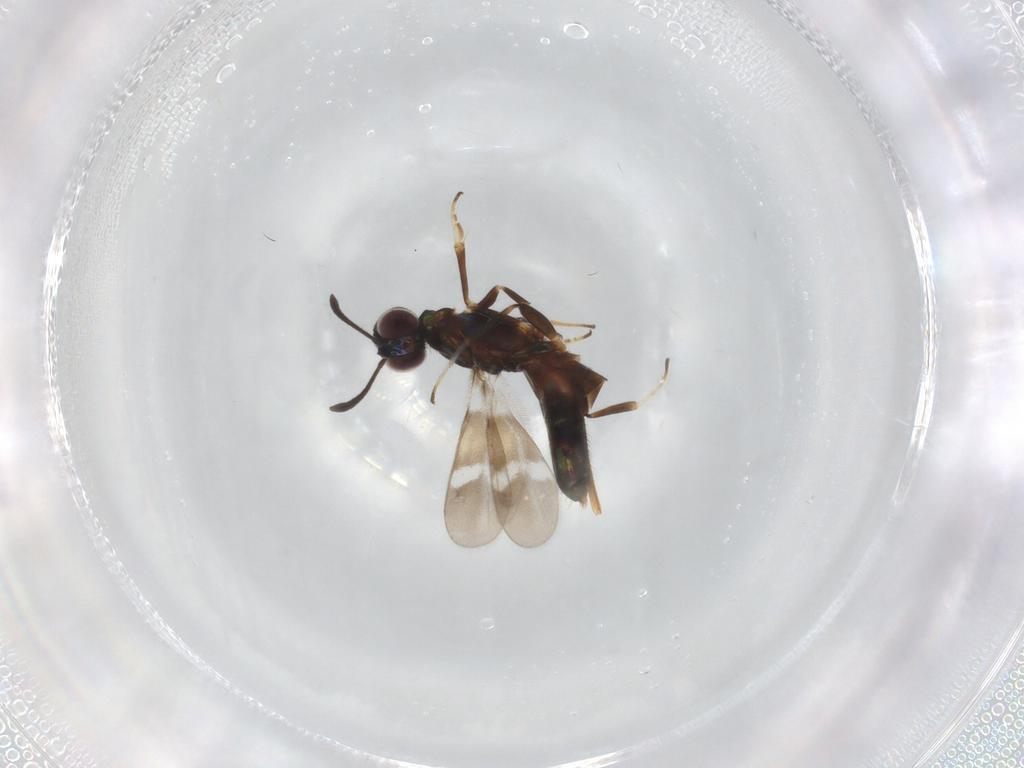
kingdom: Animalia
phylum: Arthropoda
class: Insecta
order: Hymenoptera
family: Eupelmidae
